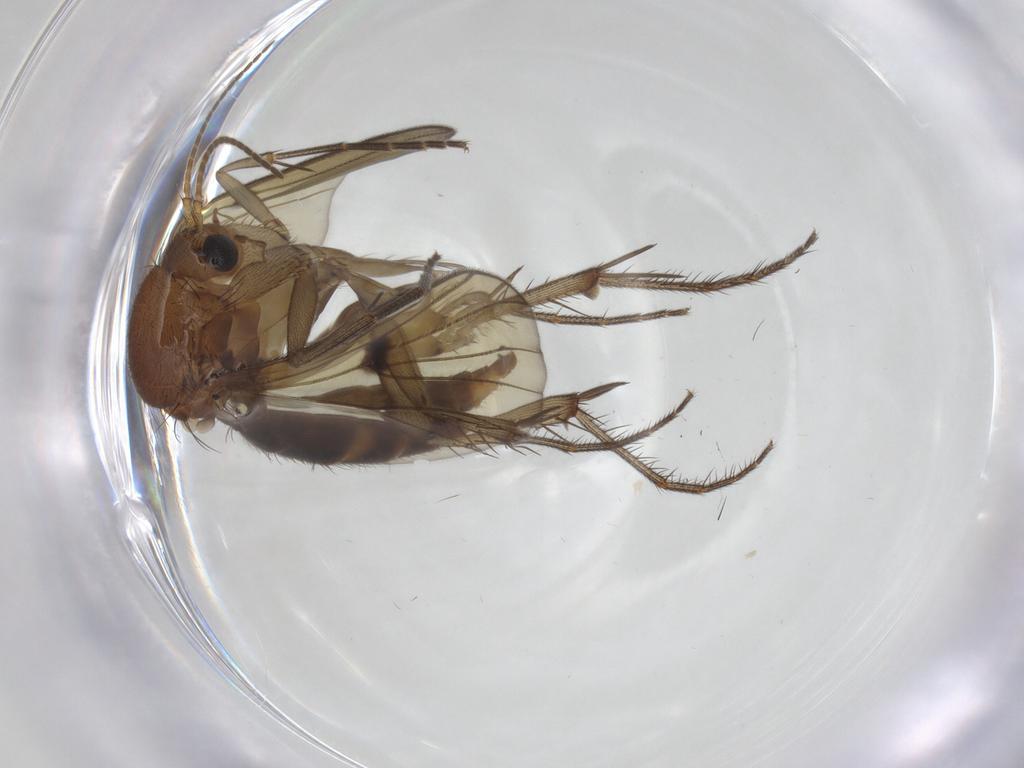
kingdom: Animalia
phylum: Arthropoda
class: Insecta
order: Diptera
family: Mycetophilidae
